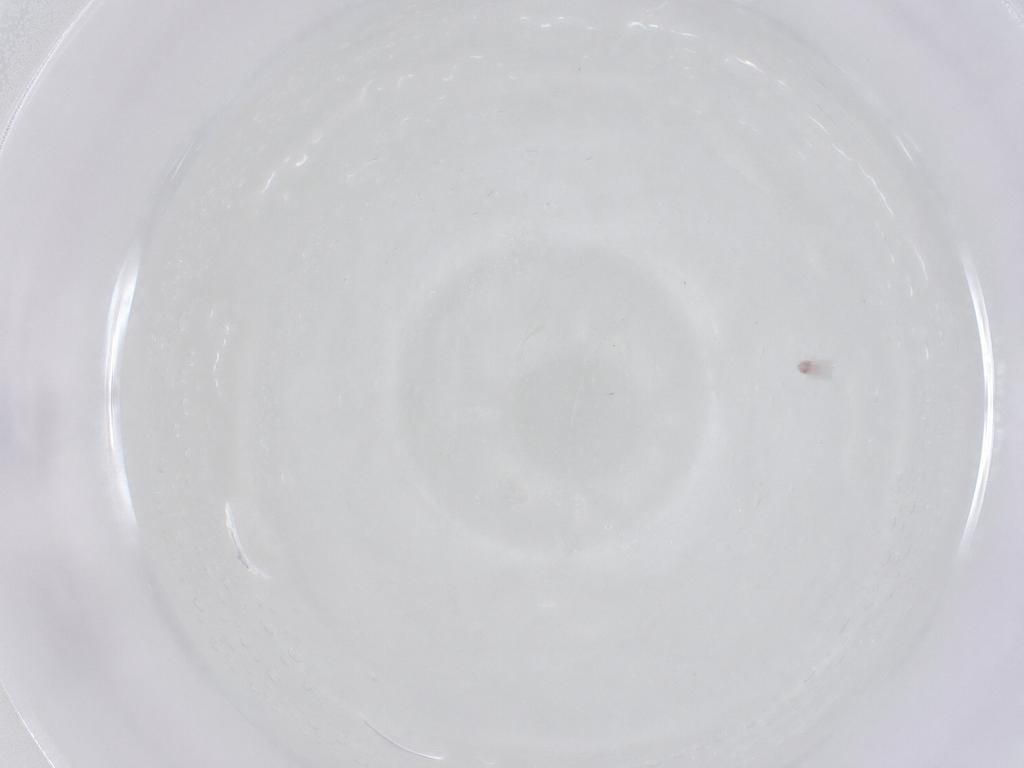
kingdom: Animalia
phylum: Arthropoda
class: Arachnida
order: Trombidiformes
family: Rhagidiidae
